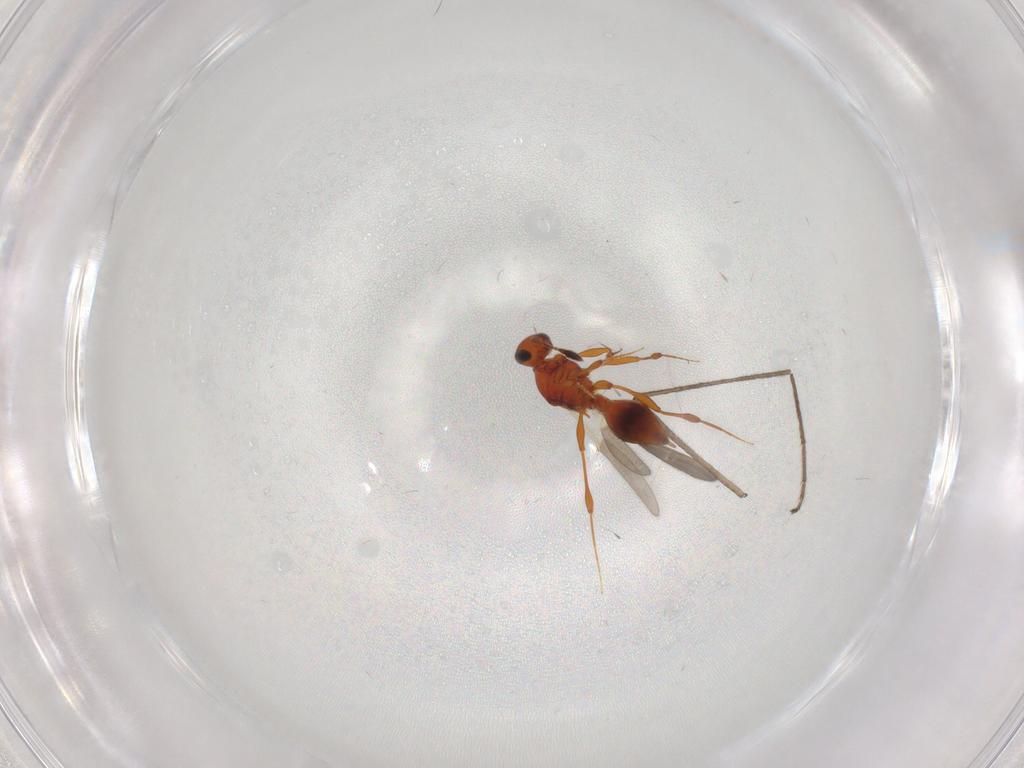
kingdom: Animalia
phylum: Arthropoda
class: Insecta
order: Hymenoptera
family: Platygastridae
